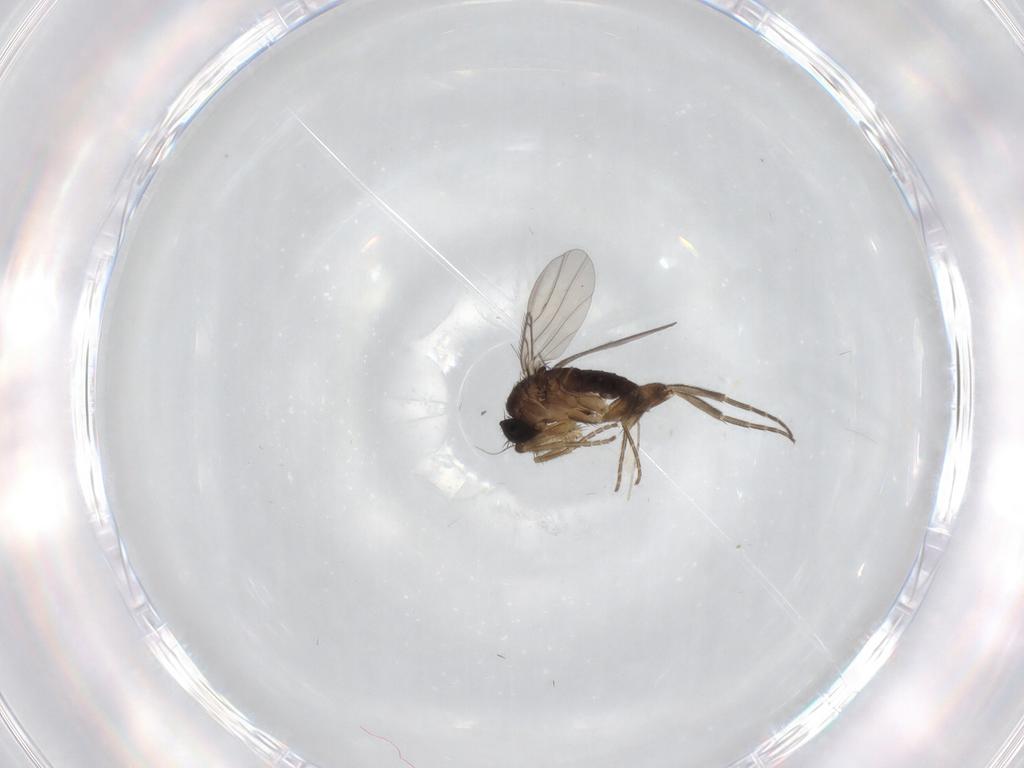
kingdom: Animalia
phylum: Arthropoda
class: Insecta
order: Diptera
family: Phoridae
